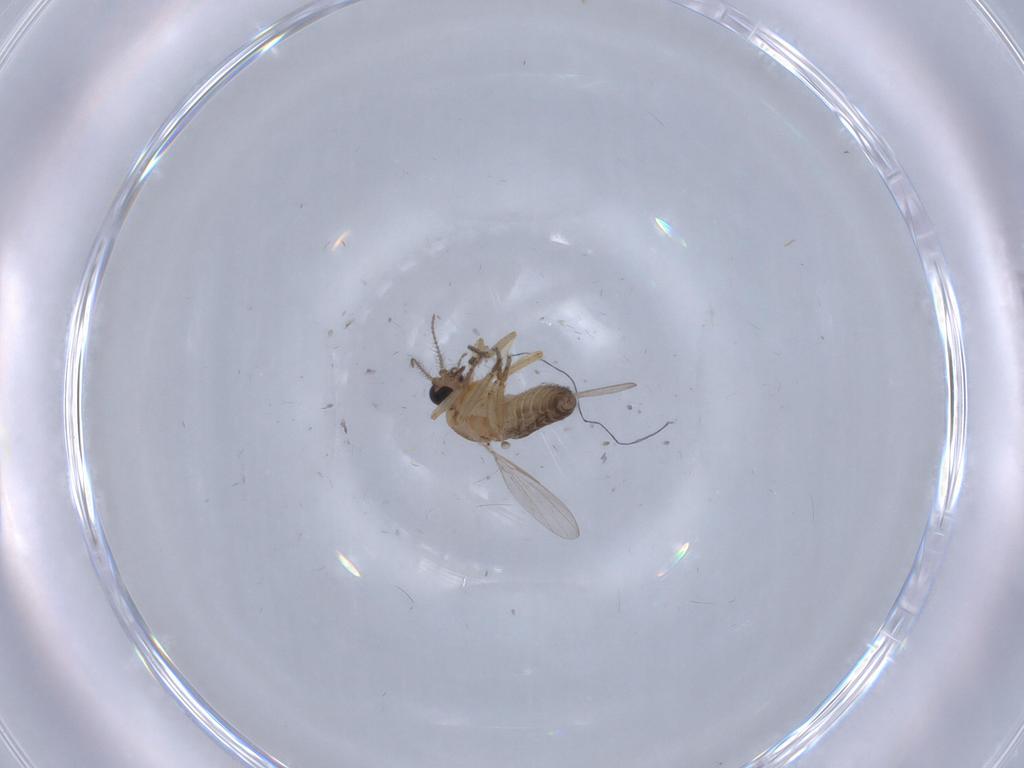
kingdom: Animalia
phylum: Arthropoda
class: Insecta
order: Diptera
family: Ceratopogonidae
